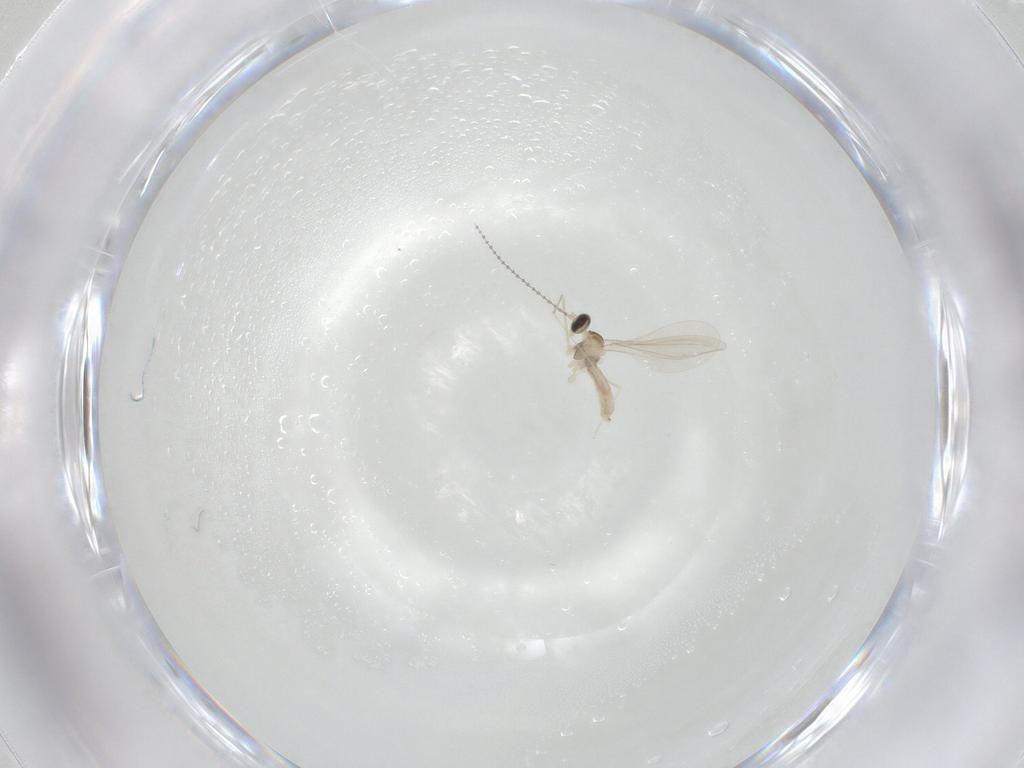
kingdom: Animalia
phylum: Arthropoda
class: Insecta
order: Diptera
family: Cecidomyiidae
